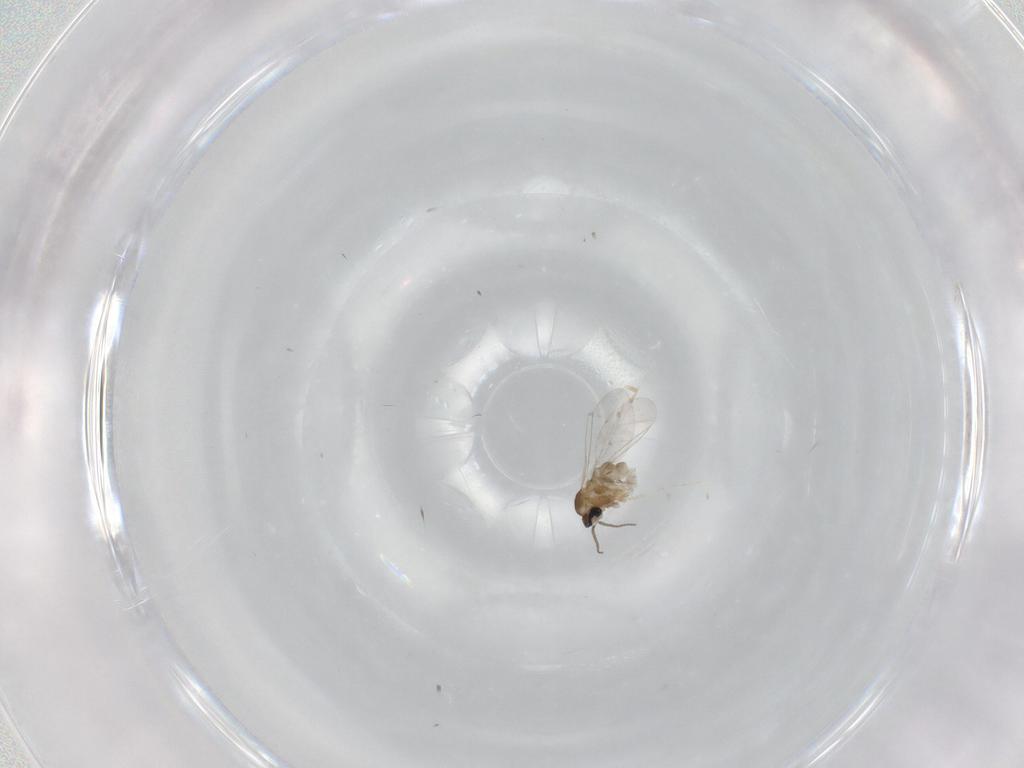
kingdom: Animalia
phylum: Arthropoda
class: Insecta
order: Diptera
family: Cecidomyiidae
